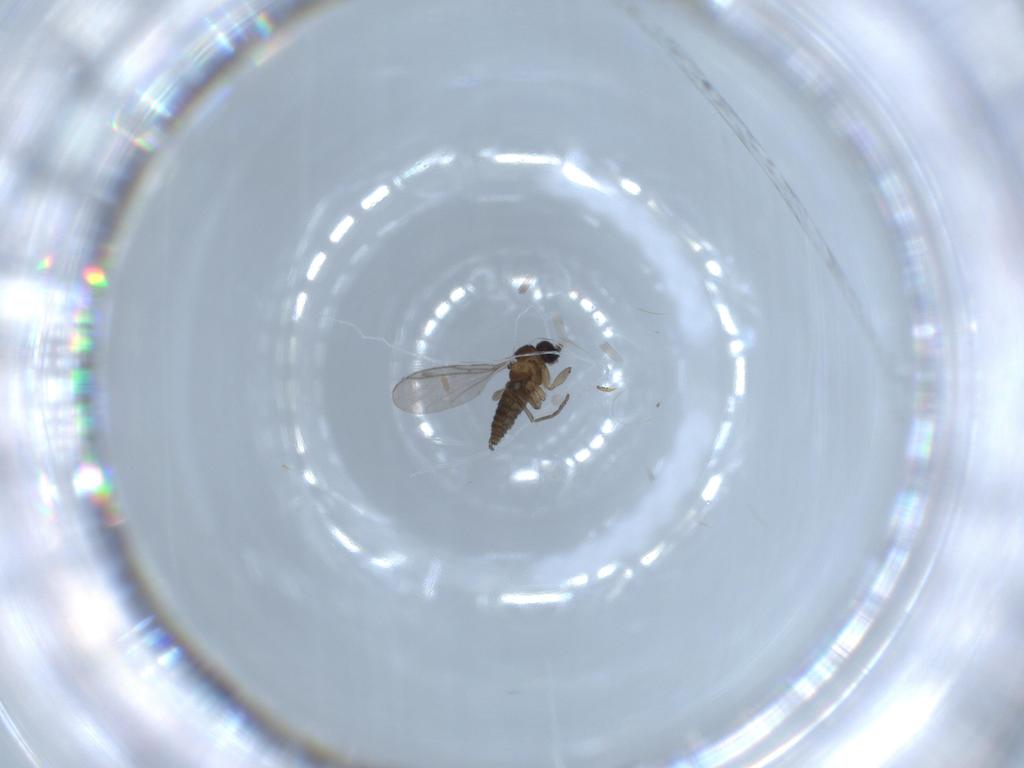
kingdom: Animalia
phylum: Arthropoda
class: Insecta
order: Diptera
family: Chironomidae
